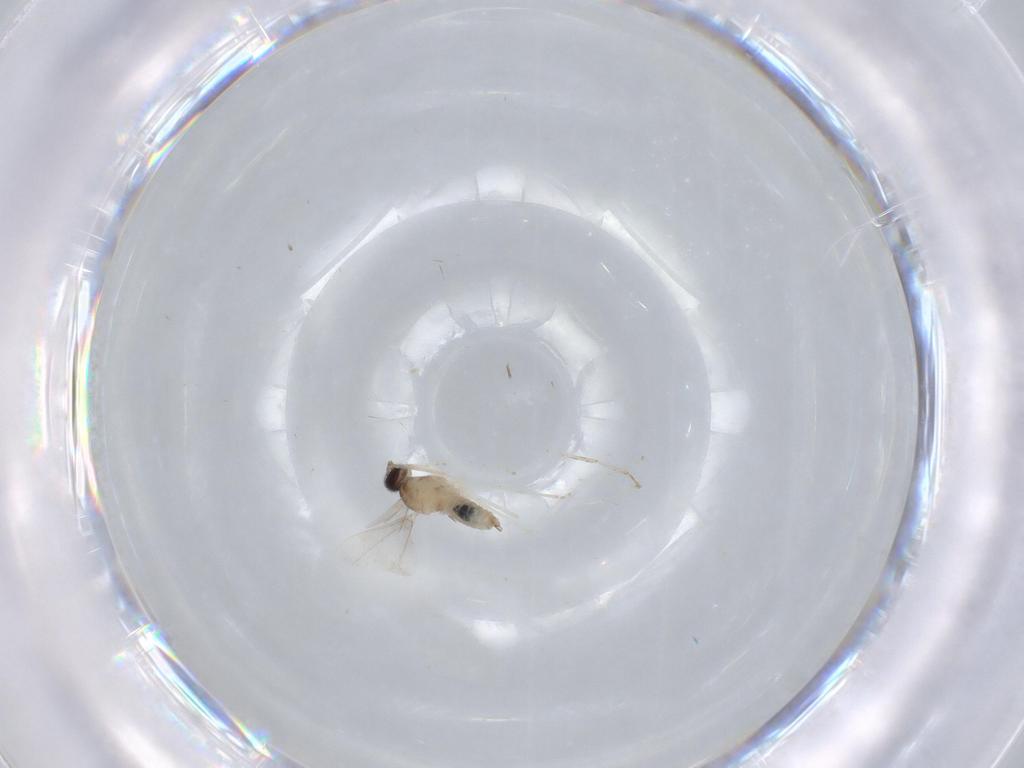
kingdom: Animalia
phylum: Arthropoda
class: Insecta
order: Diptera
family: Cecidomyiidae
